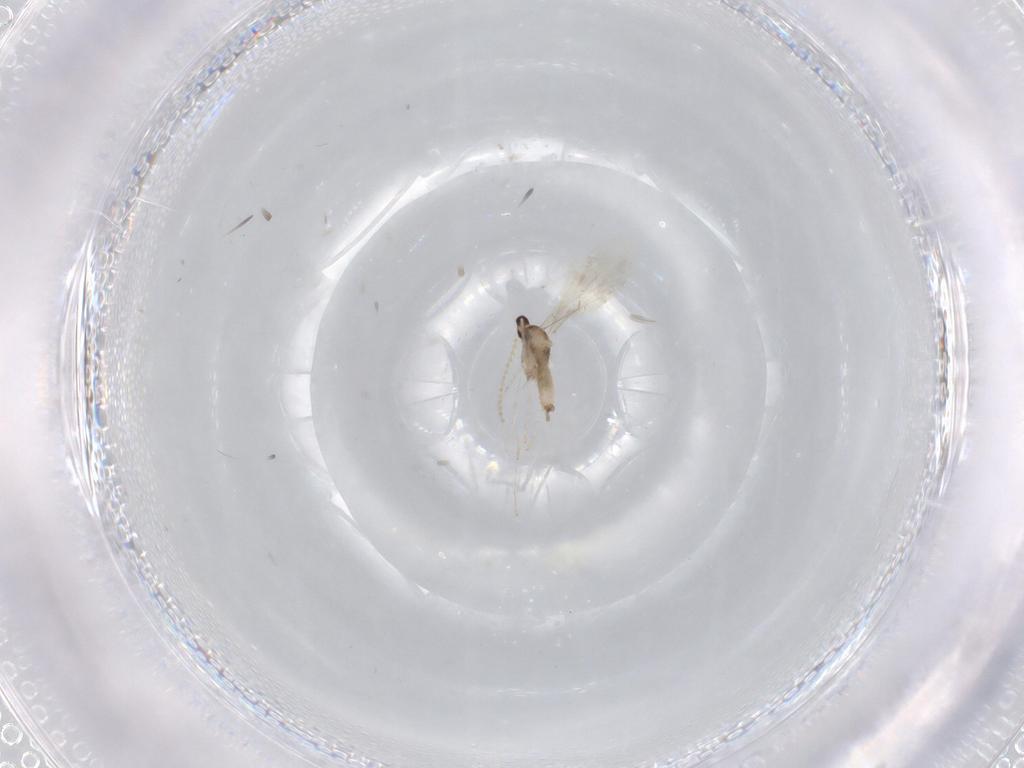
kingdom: Animalia
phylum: Arthropoda
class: Insecta
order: Diptera
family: Cecidomyiidae
